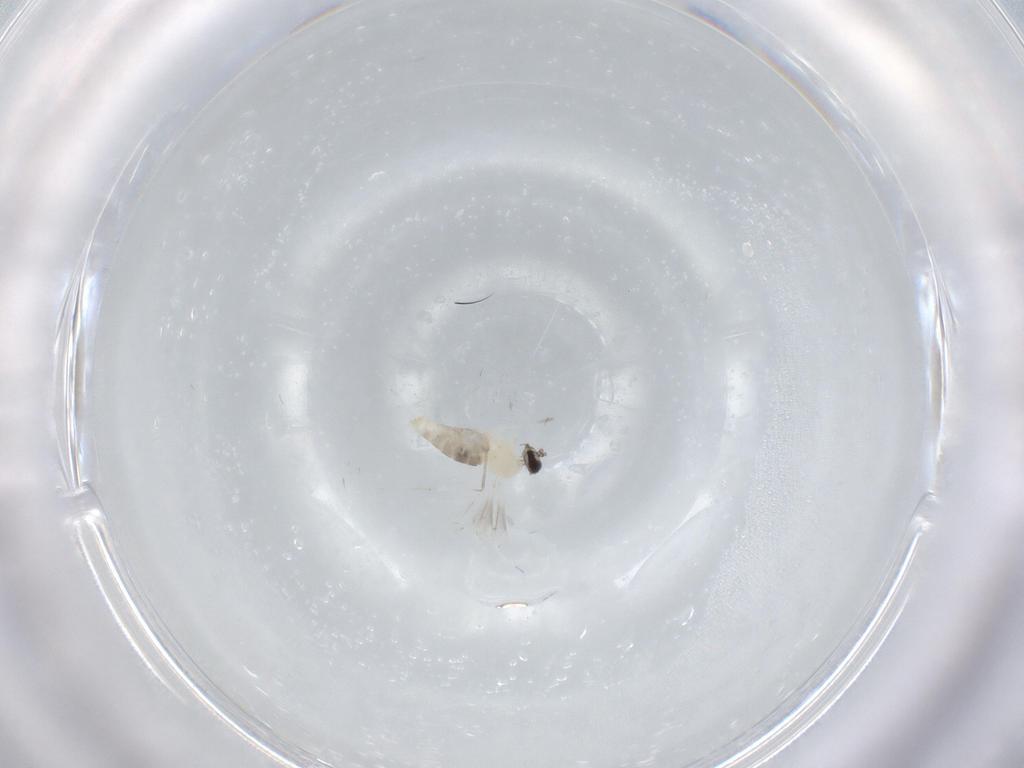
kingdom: Animalia
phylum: Arthropoda
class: Insecta
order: Diptera
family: Cecidomyiidae
